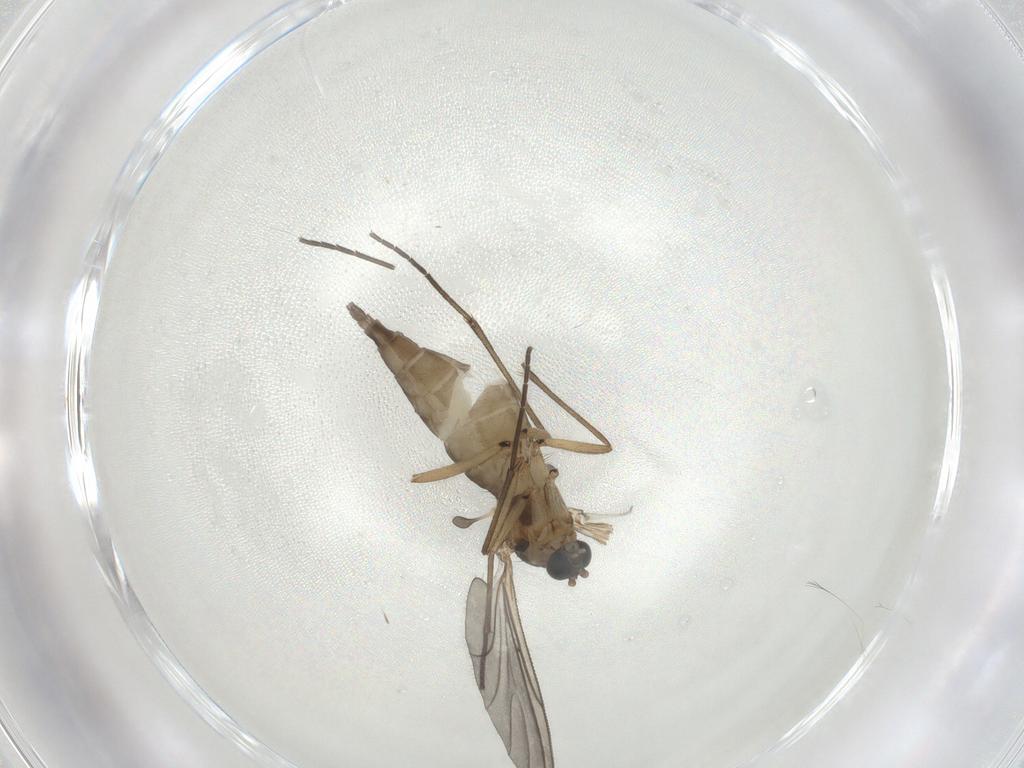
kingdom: Animalia
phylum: Arthropoda
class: Insecta
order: Diptera
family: Sciaridae
